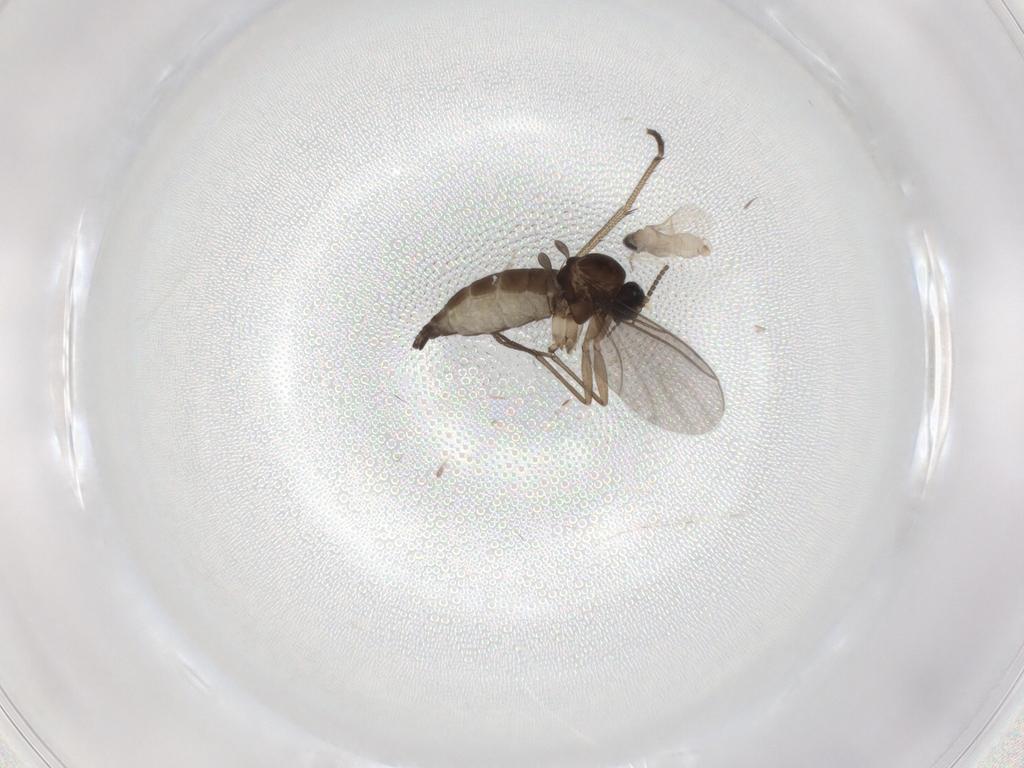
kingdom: Animalia
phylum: Arthropoda
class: Insecta
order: Diptera
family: Sciaridae
